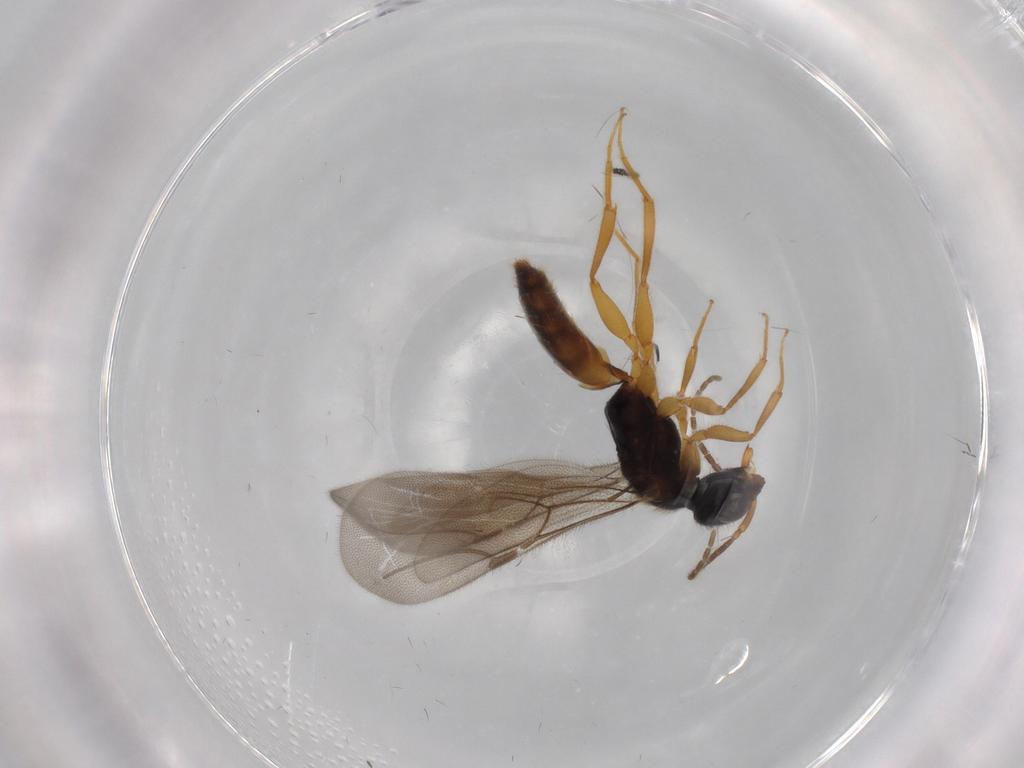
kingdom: Animalia
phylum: Arthropoda
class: Insecta
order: Hymenoptera
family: Bethylidae
